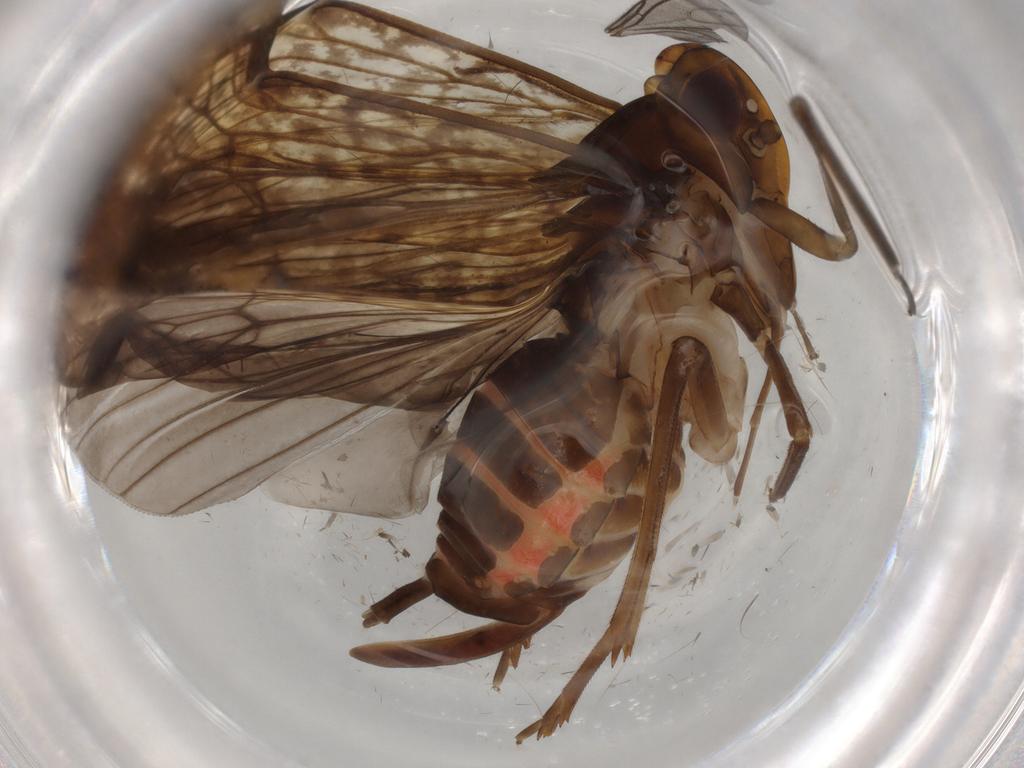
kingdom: Animalia
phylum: Arthropoda
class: Insecta
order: Hemiptera
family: Cixiidae
